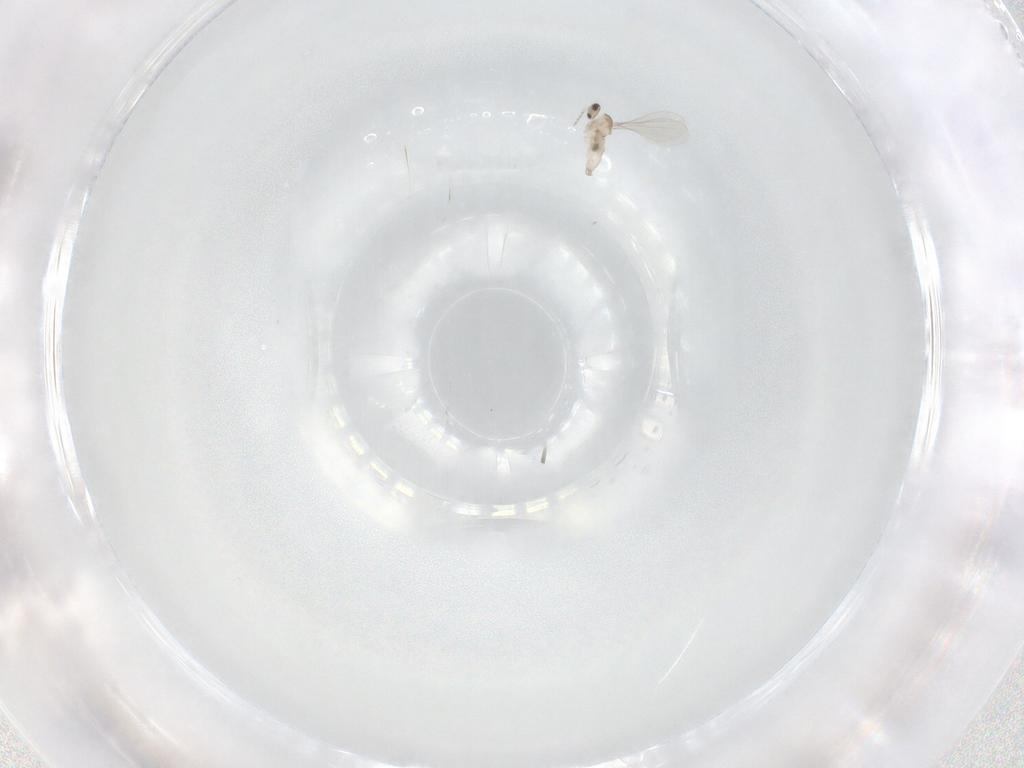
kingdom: Animalia
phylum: Arthropoda
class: Insecta
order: Diptera
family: Cecidomyiidae
